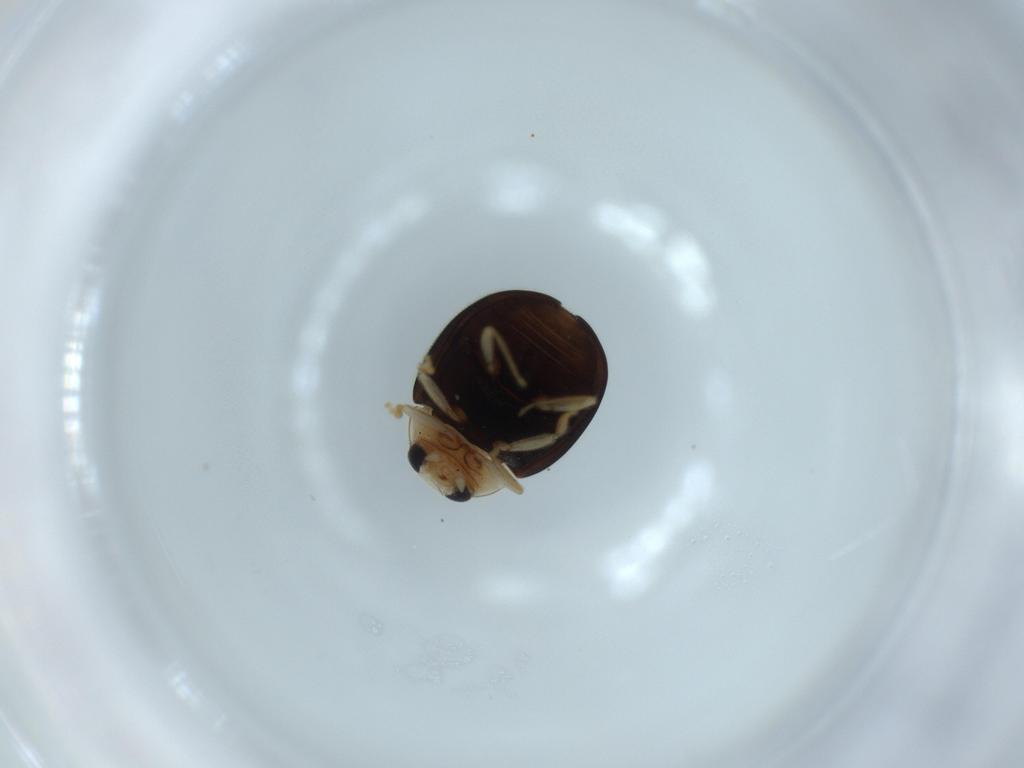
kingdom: Animalia
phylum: Arthropoda
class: Insecta
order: Coleoptera
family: Coccinellidae
